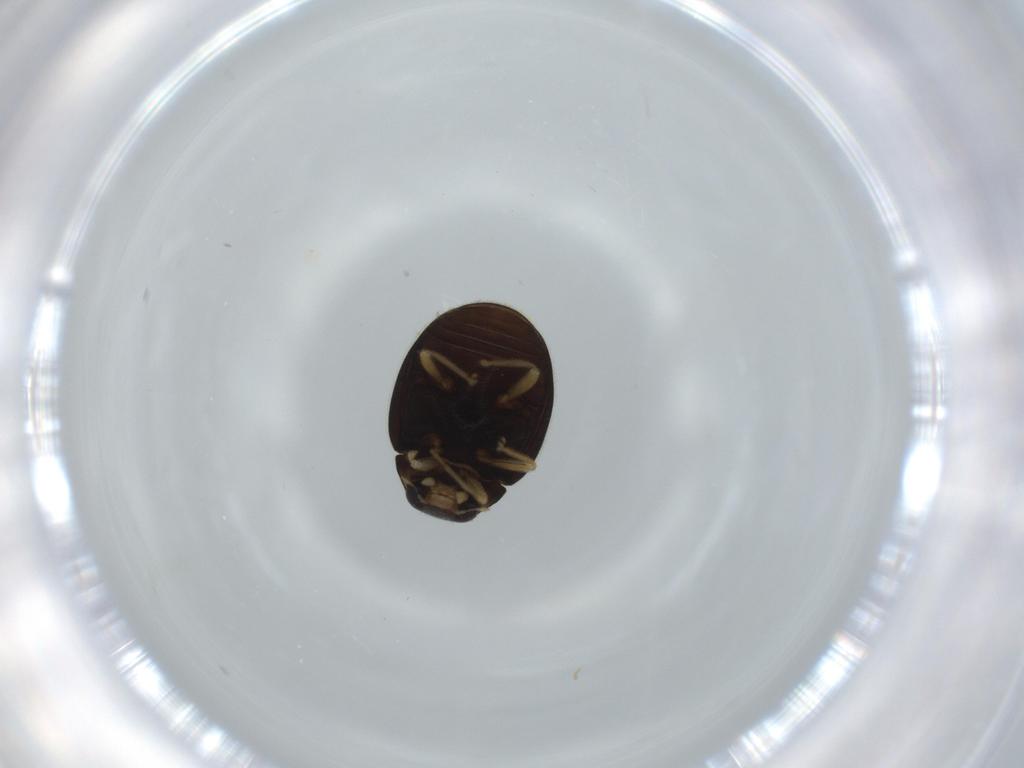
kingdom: Animalia
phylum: Arthropoda
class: Insecta
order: Coleoptera
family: Coccinellidae
